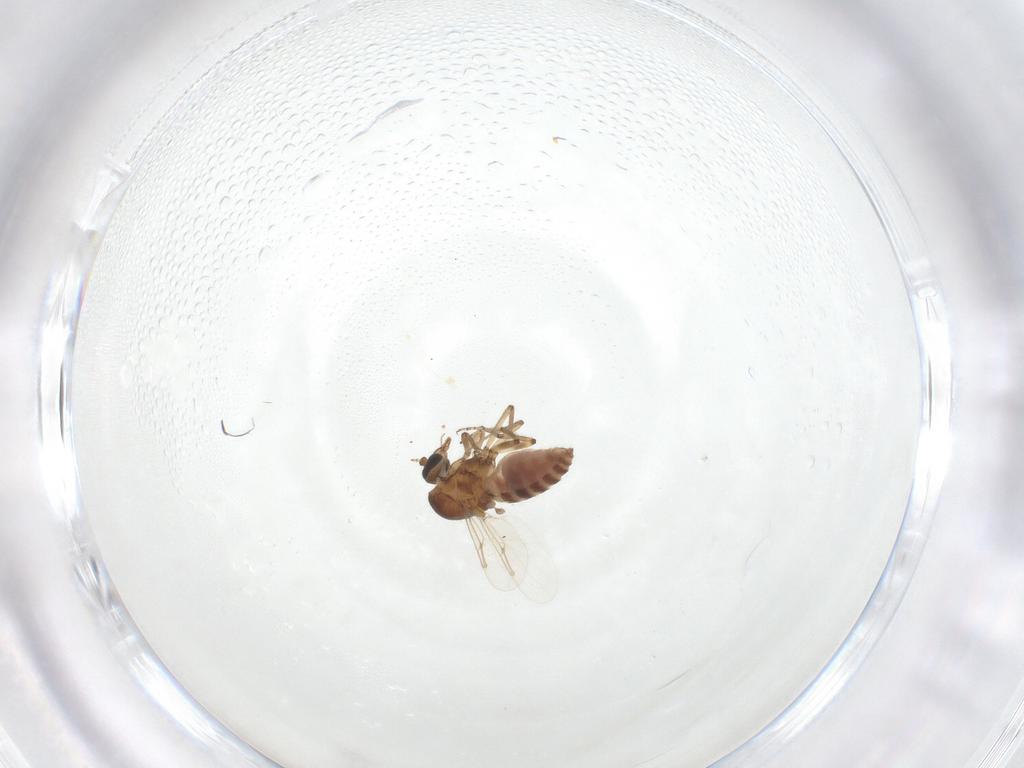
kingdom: Animalia
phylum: Arthropoda
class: Insecta
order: Diptera
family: Ceratopogonidae
